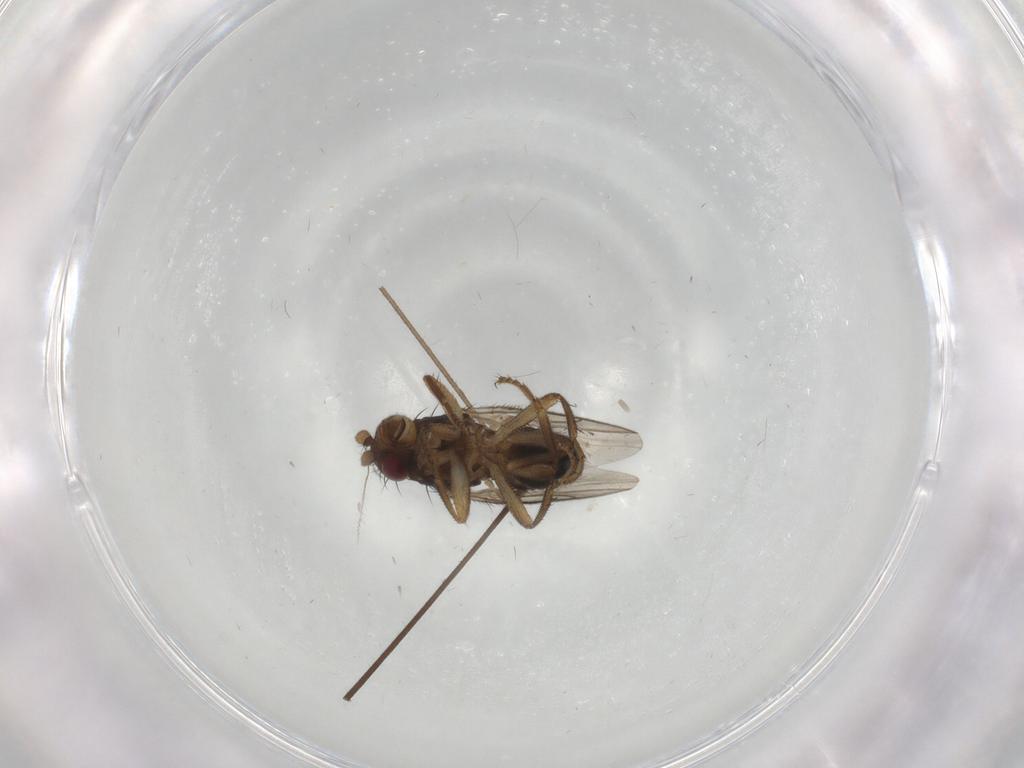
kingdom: Animalia
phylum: Arthropoda
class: Insecta
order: Diptera
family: Sphaeroceridae
